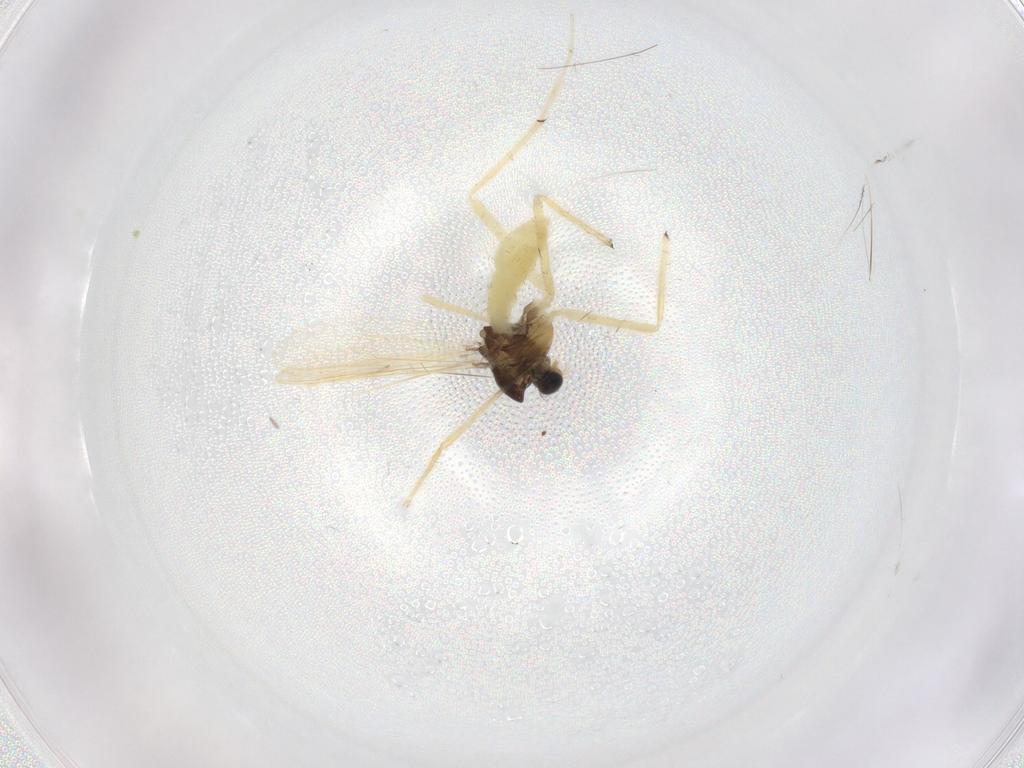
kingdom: Animalia
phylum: Arthropoda
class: Insecta
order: Diptera
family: Chironomidae
